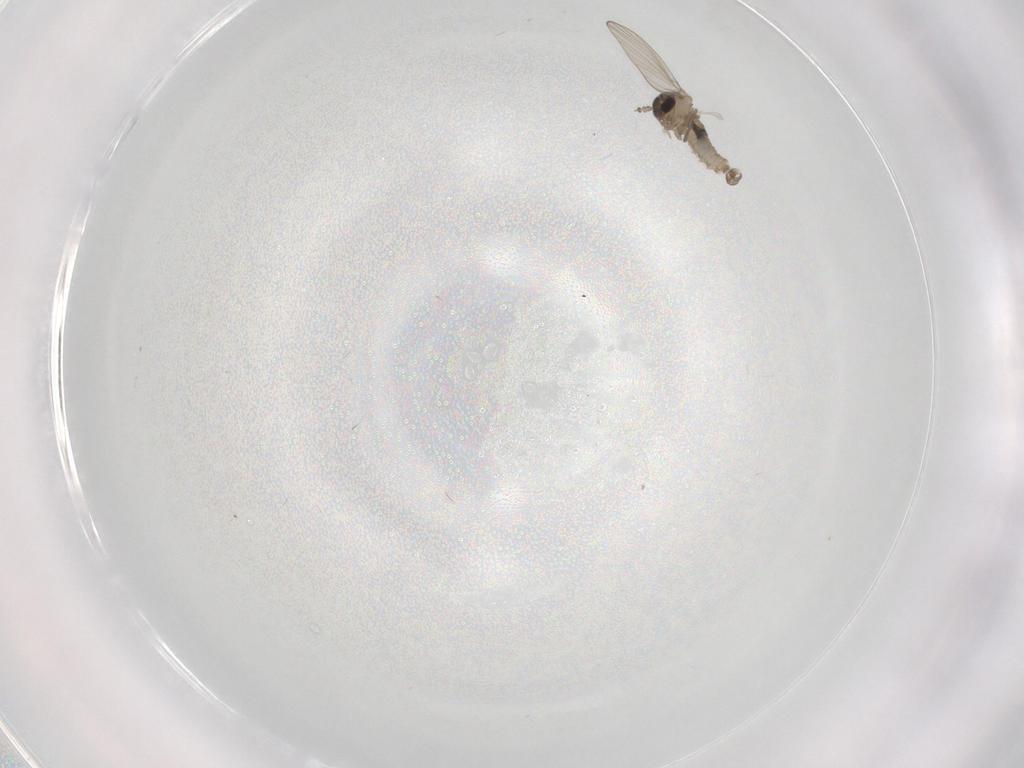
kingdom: Animalia
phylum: Arthropoda
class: Insecta
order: Diptera
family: Psychodidae
